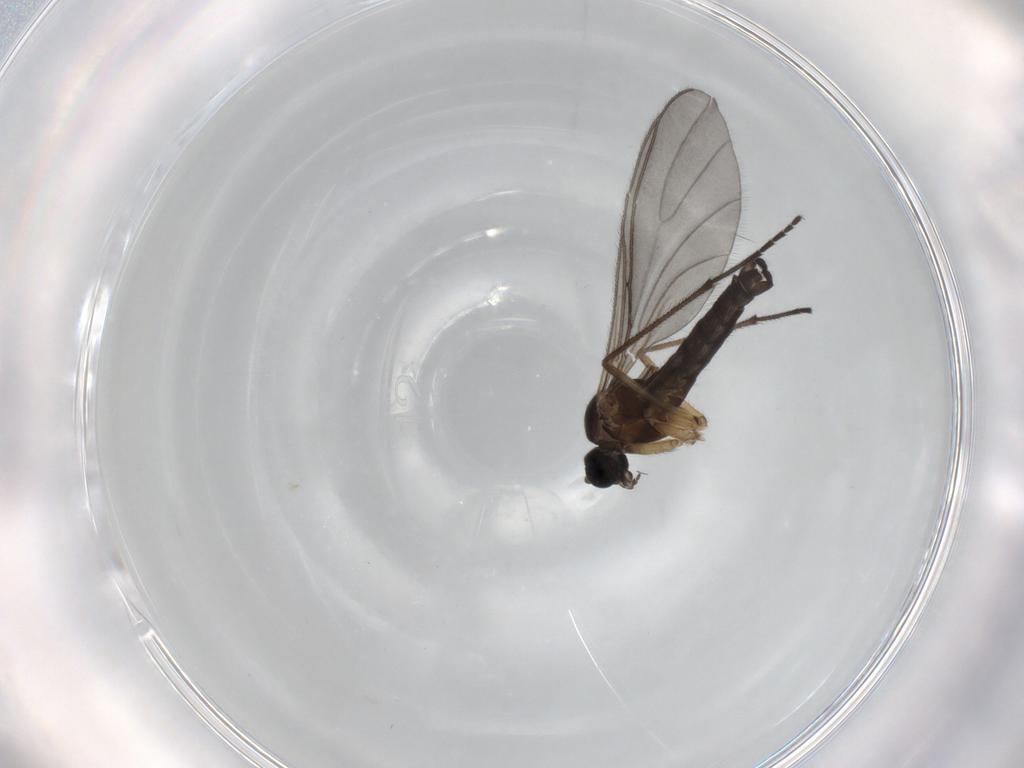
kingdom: Animalia
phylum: Arthropoda
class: Insecta
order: Diptera
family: Sciaridae
